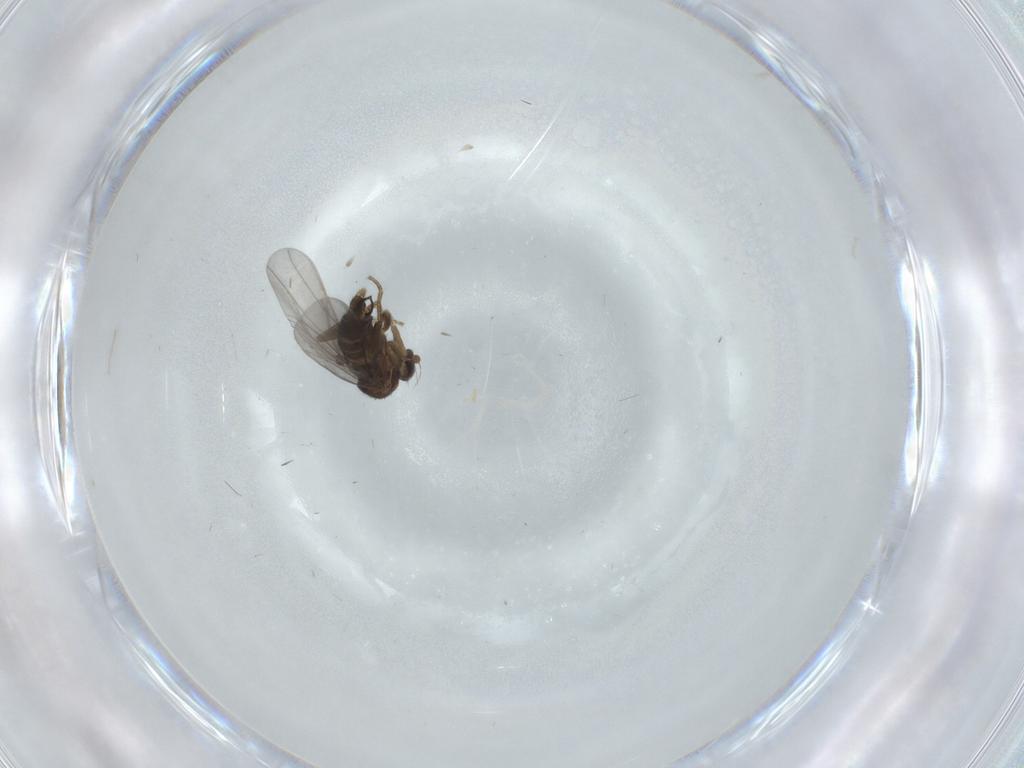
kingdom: Animalia
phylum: Arthropoda
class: Insecta
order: Diptera
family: Phoridae
